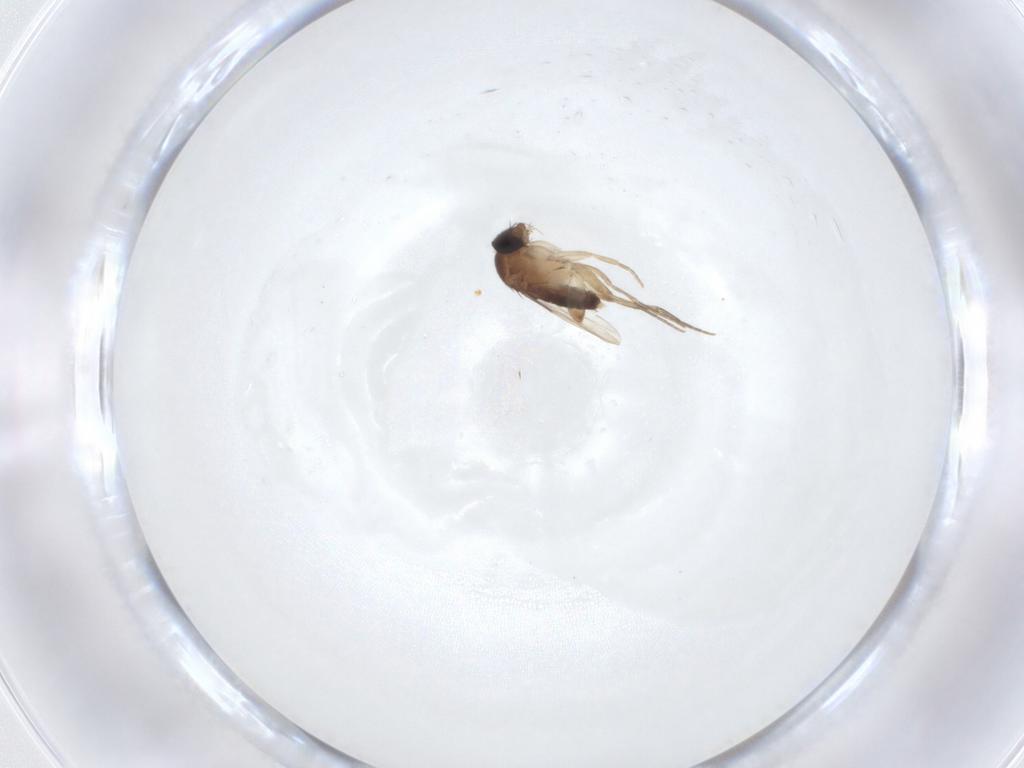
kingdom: Animalia
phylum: Arthropoda
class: Insecta
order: Diptera
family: Phoridae
